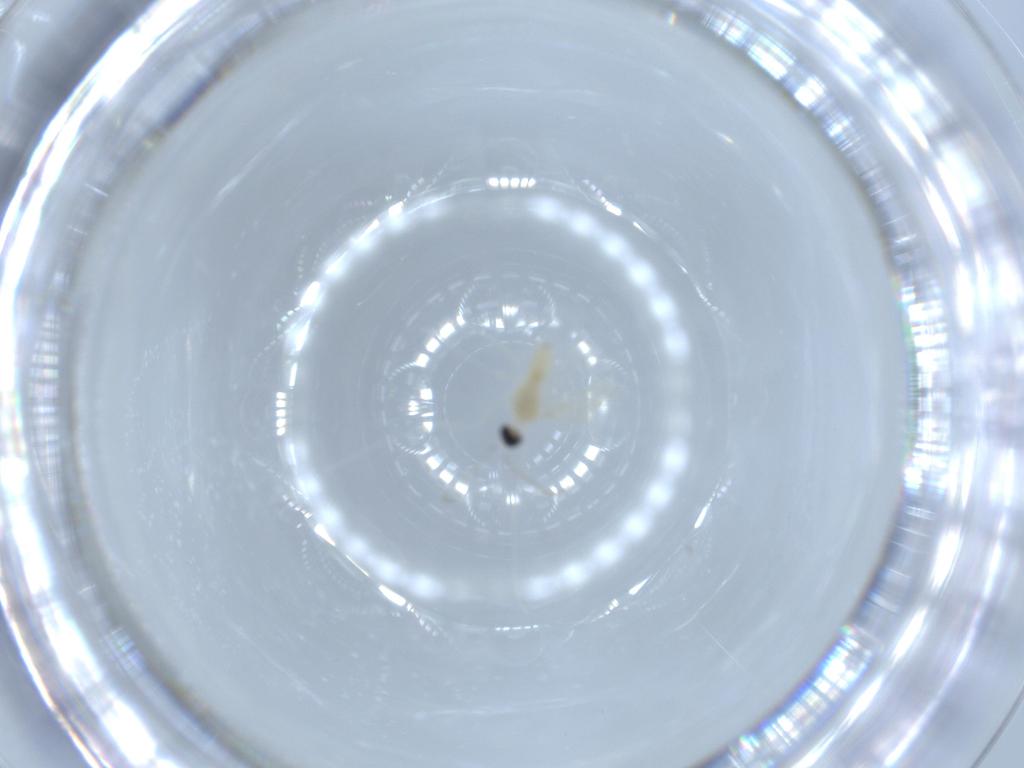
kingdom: Animalia
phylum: Arthropoda
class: Insecta
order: Diptera
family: Cecidomyiidae
